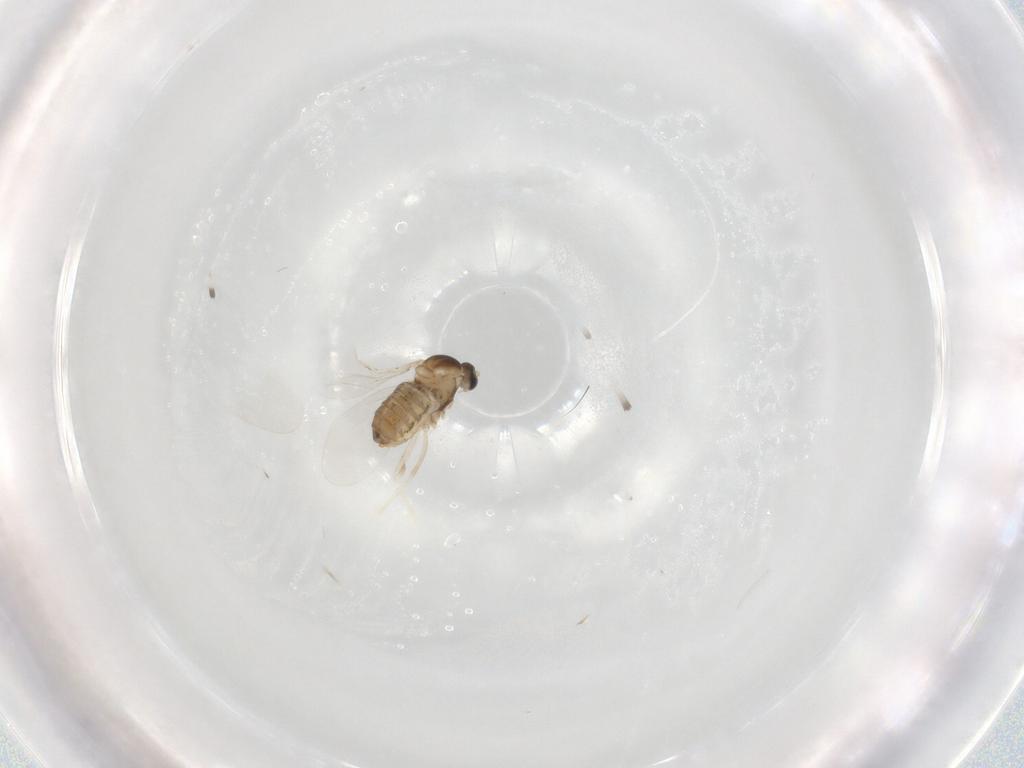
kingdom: Animalia
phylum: Arthropoda
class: Insecta
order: Diptera
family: Cecidomyiidae
